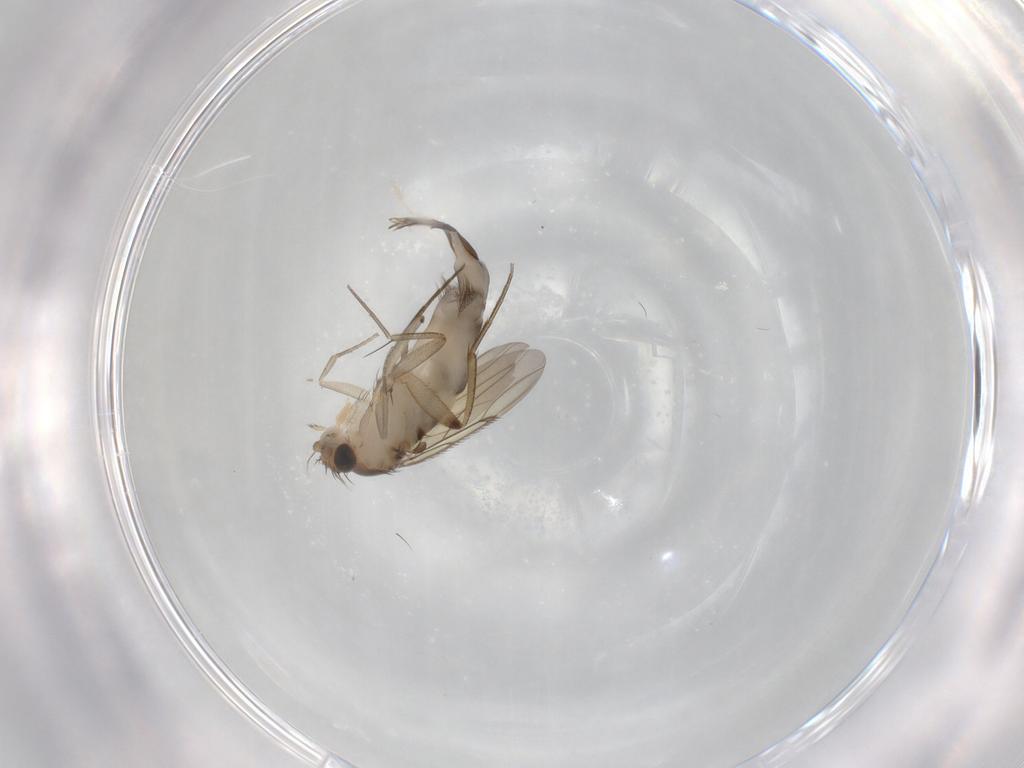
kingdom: Animalia
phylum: Arthropoda
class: Insecta
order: Diptera
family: Phoridae
